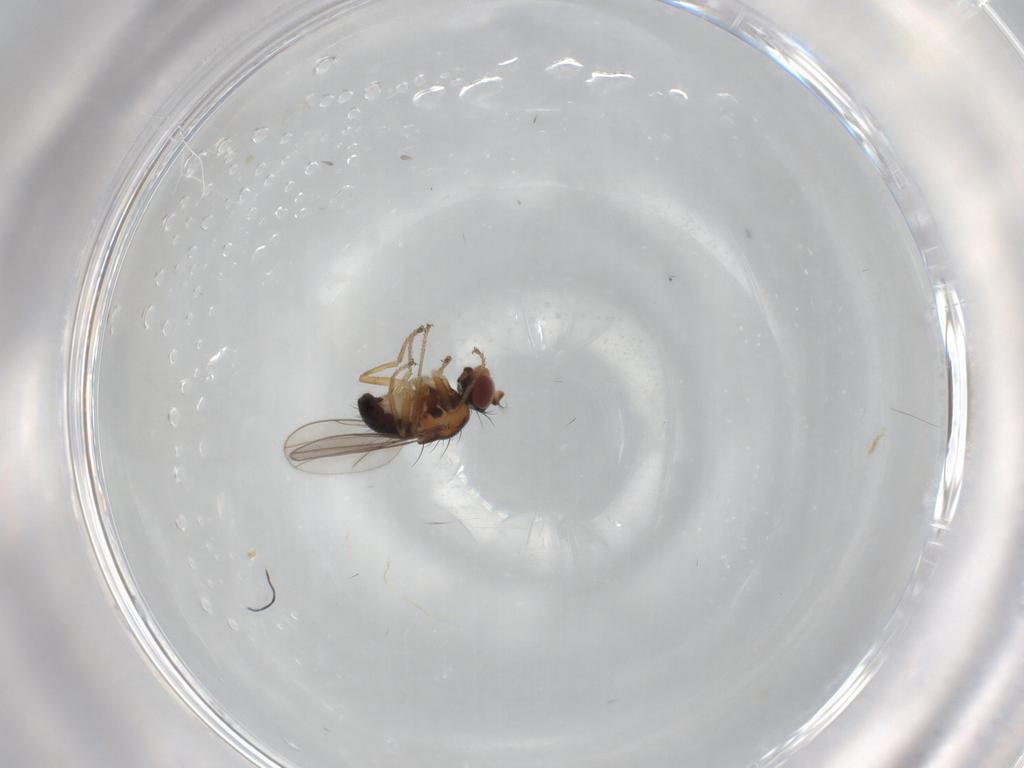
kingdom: Animalia
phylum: Arthropoda
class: Insecta
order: Diptera
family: Ephydridae
